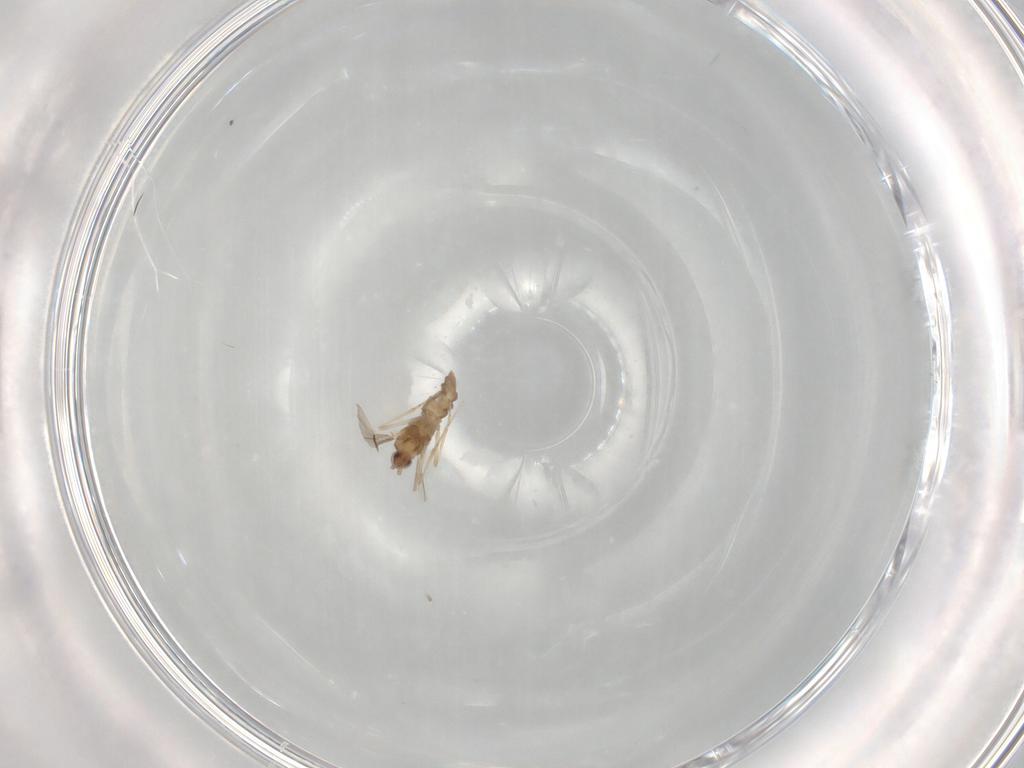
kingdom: Animalia
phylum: Arthropoda
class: Insecta
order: Diptera
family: Cecidomyiidae
